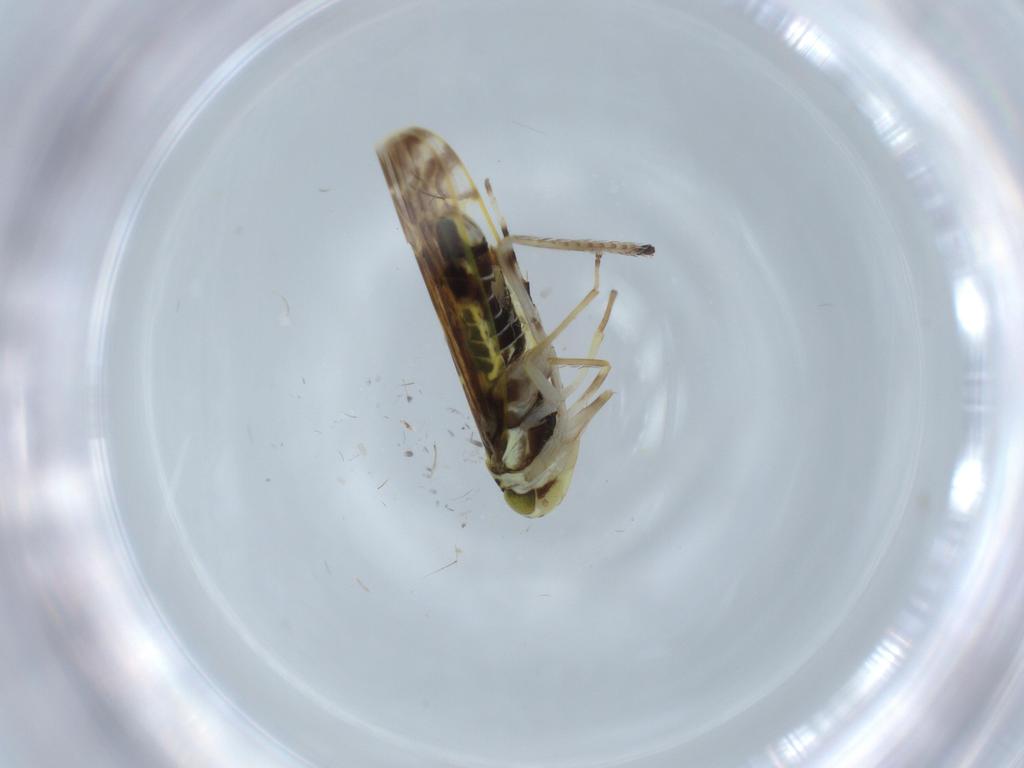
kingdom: Animalia
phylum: Arthropoda
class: Insecta
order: Hemiptera
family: Cicadellidae
